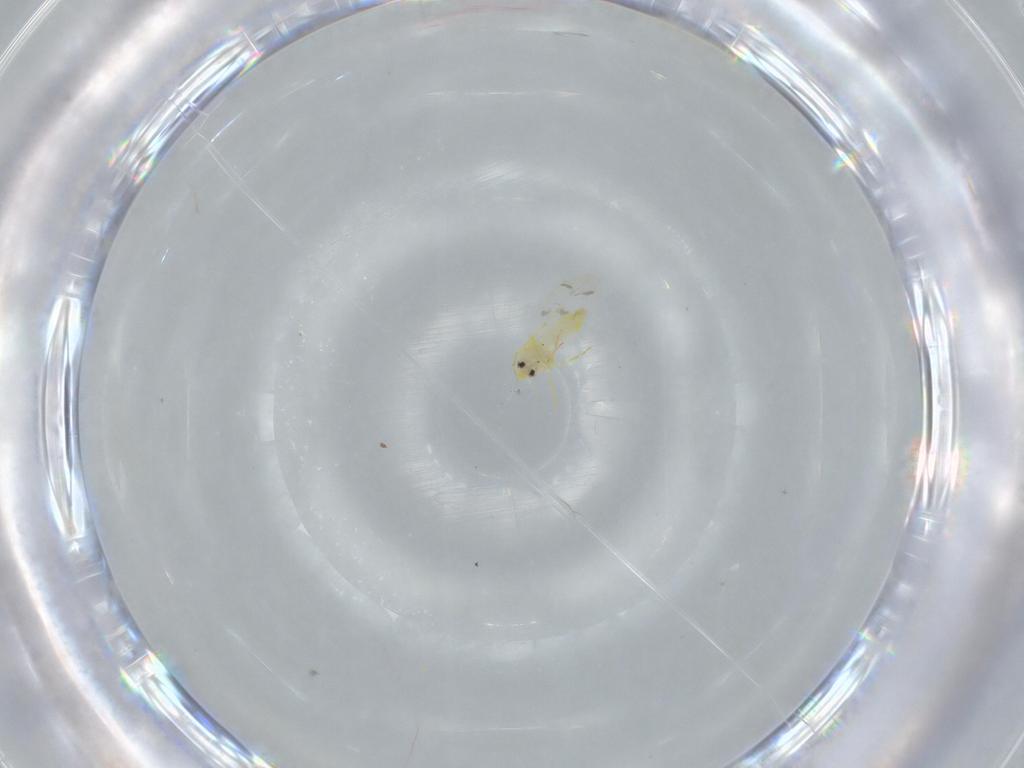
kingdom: Animalia
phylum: Arthropoda
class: Insecta
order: Hemiptera
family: Aleyrodidae
